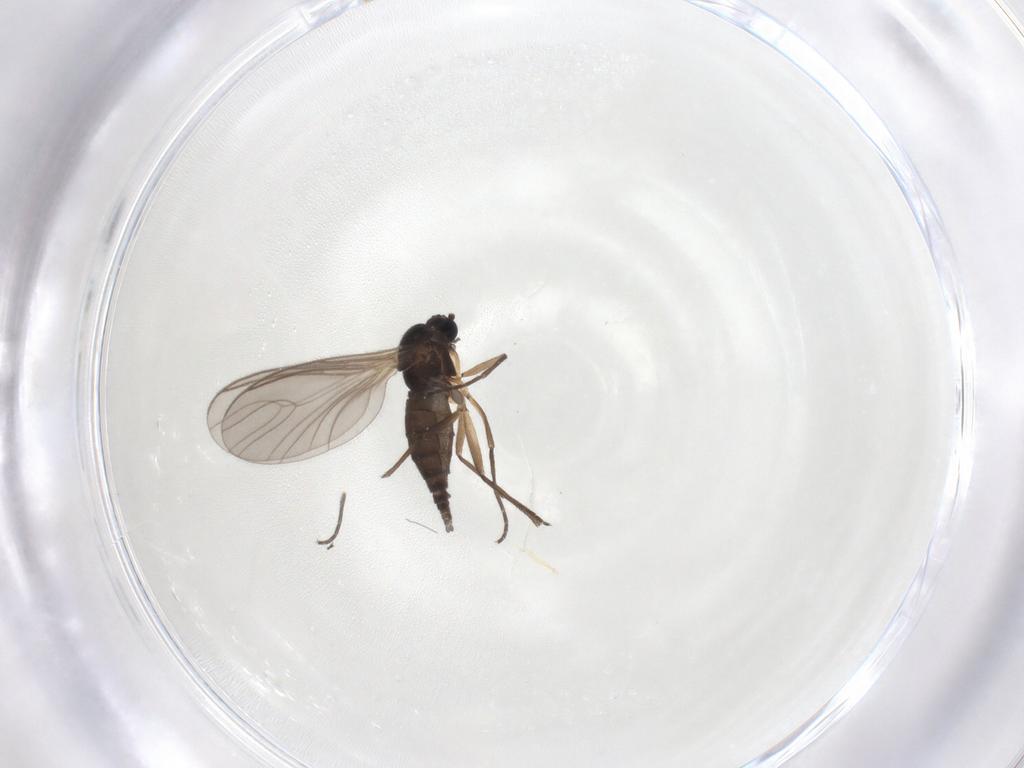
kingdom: Animalia
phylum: Arthropoda
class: Insecta
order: Diptera
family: Sciaridae
